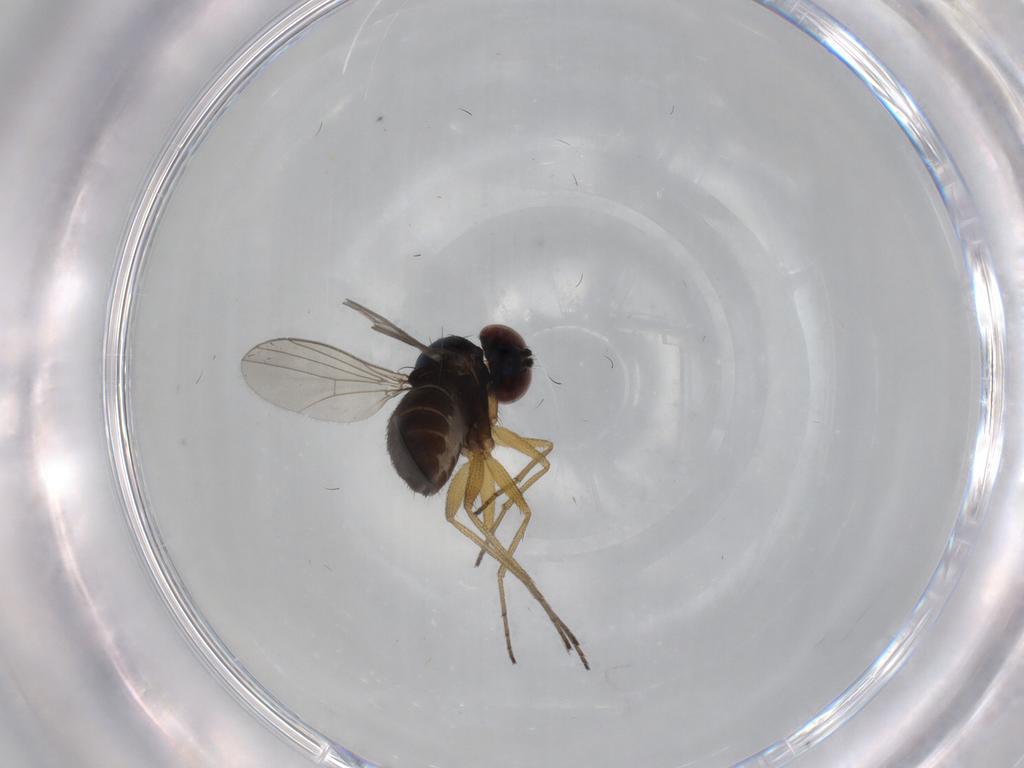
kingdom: Animalia
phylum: Arthropoda
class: Insecta
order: Diptera
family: Dolichopodidae
